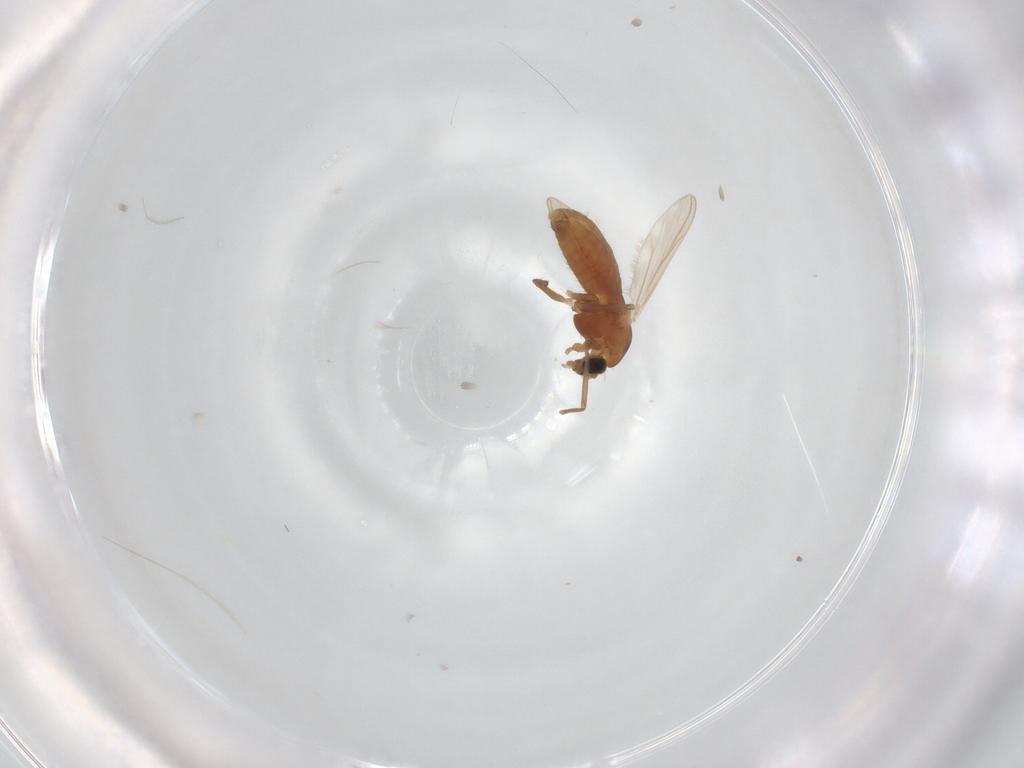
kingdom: Animalia
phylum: Arthropoda
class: Insecta
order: Diptera
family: Chironomidae
